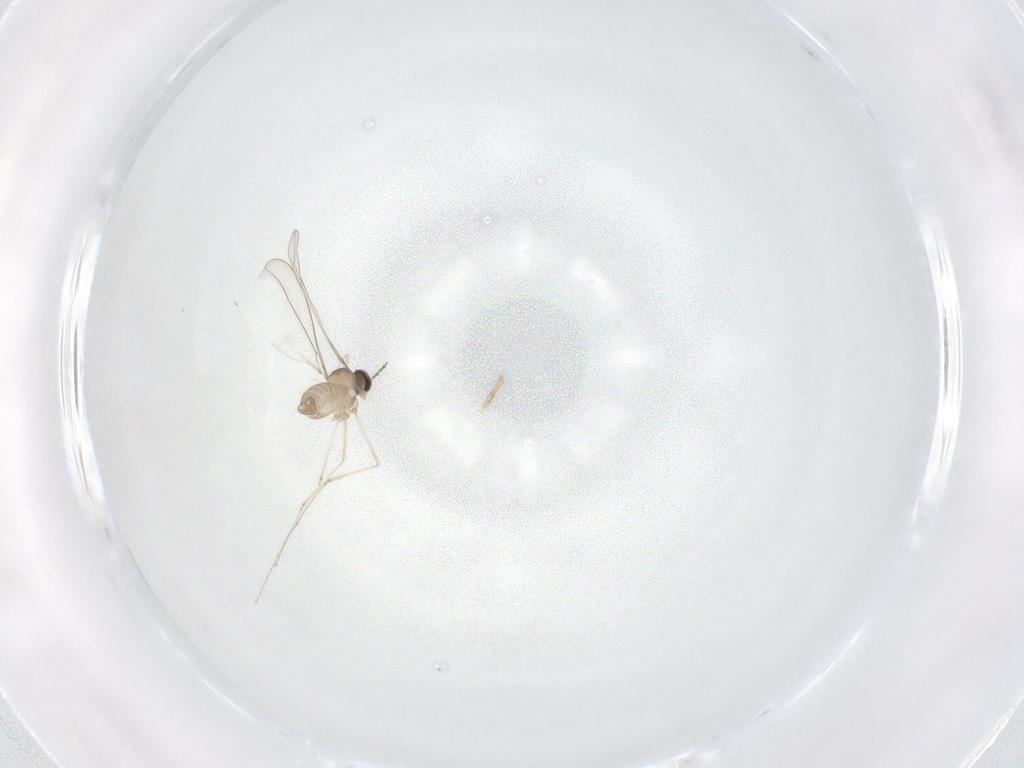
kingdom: Animalia
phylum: Arthropoda
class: Insecta
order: Diptera
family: Cecidomyiidae
